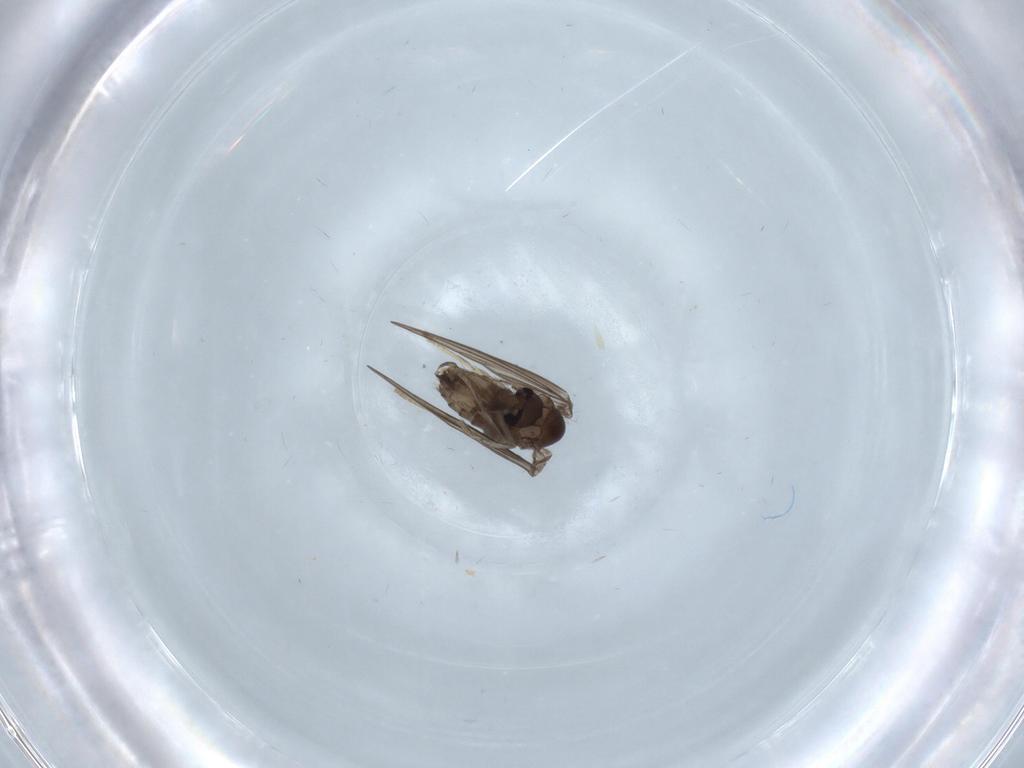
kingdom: Animalia
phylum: Arthropoda
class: Insecta
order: Diptera
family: Psychodidae
